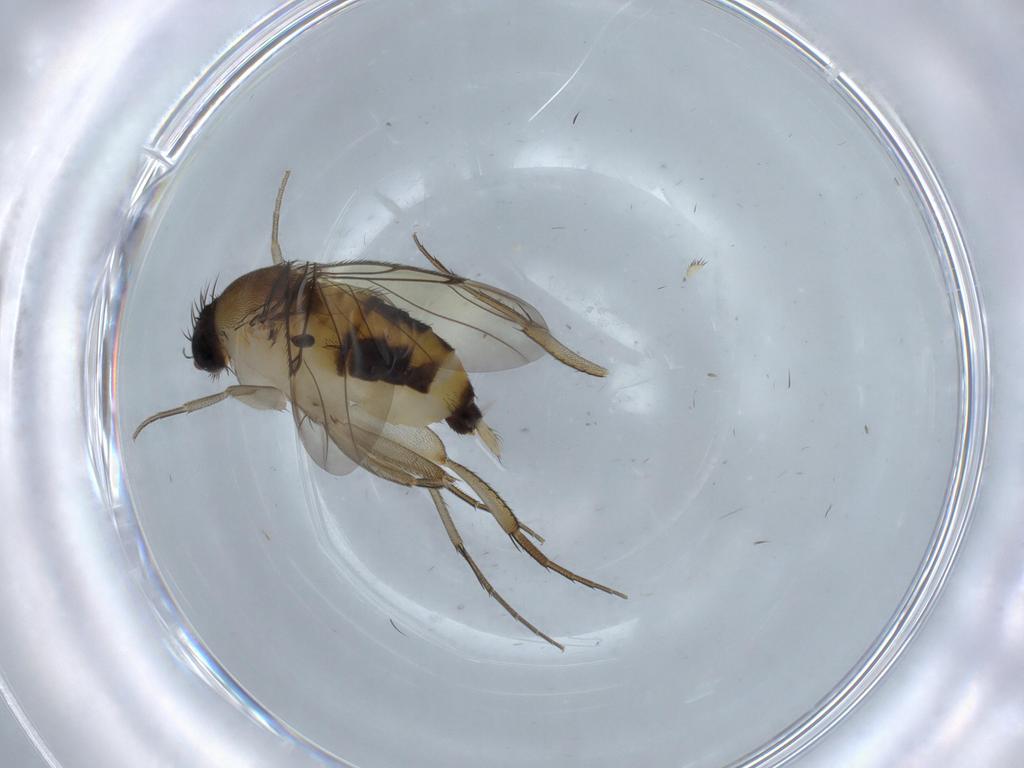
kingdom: Animalia
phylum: Arthropoda
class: Insecta
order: Diptera
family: Phoridae
